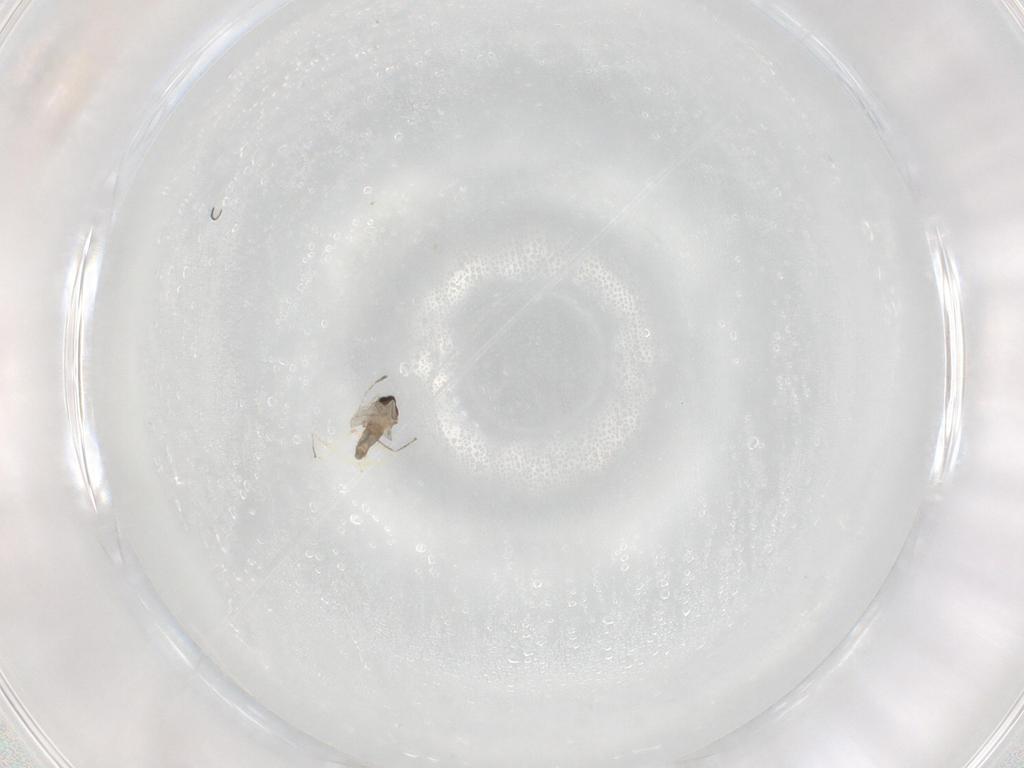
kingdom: Animalia
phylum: Arthropoda
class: Insecta
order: Diptera
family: Cecidomyiidae
